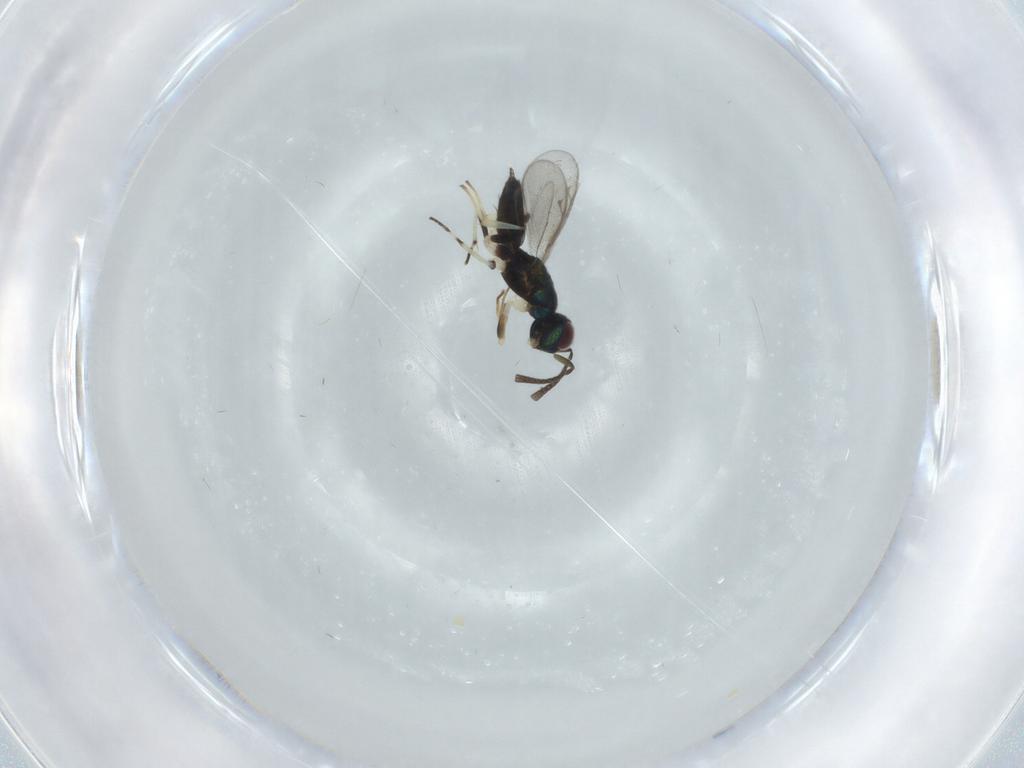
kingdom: Animalia
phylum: Arthropoda
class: Insecta
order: Hymenoptera
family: Eupelmidae
